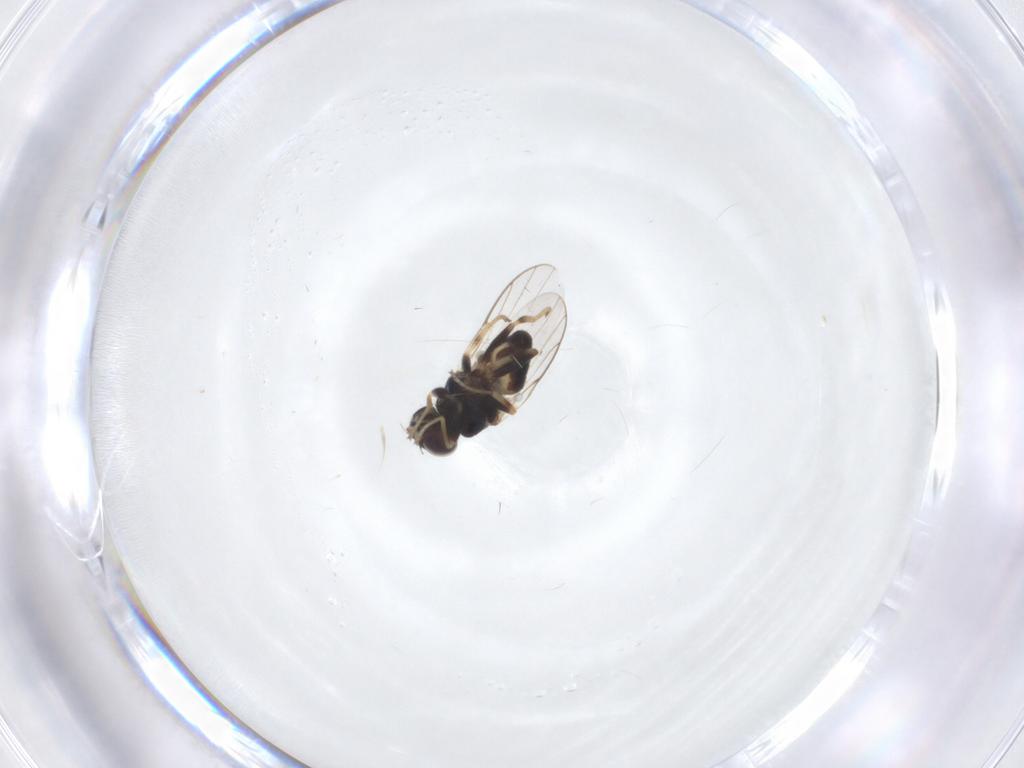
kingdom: Animalia
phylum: Arthropoda
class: Insecta
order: Diptera
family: Chloropidae
